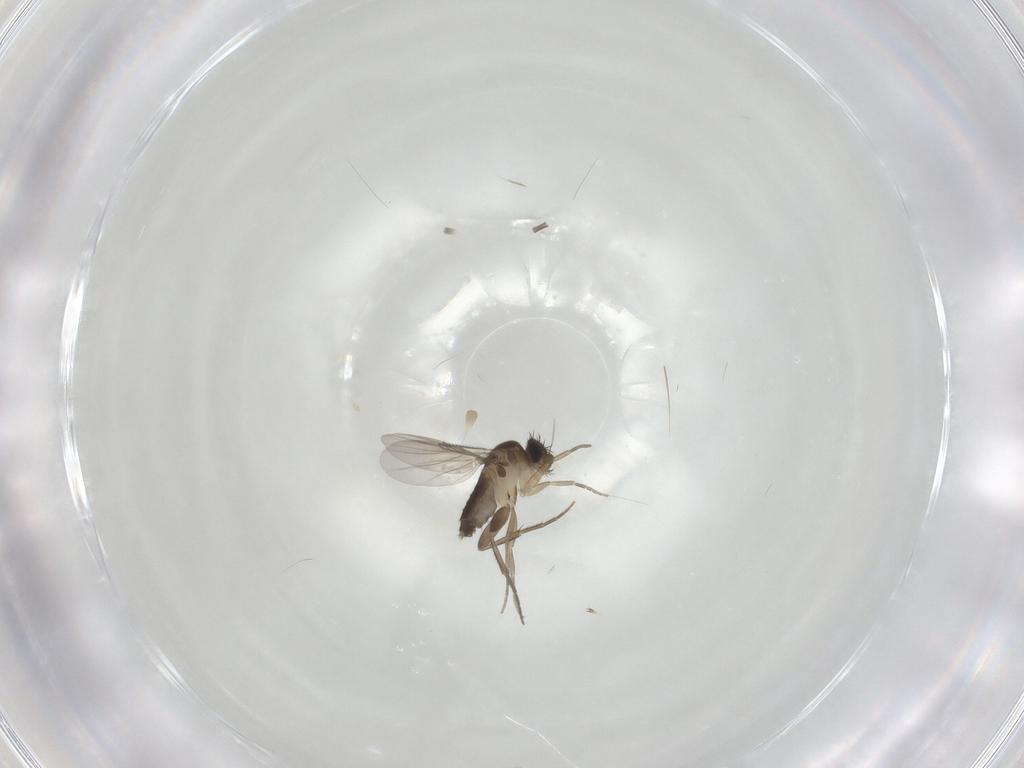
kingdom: Animalia
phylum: Arthropoda
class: Insecta
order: Diptera
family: Phoridae
